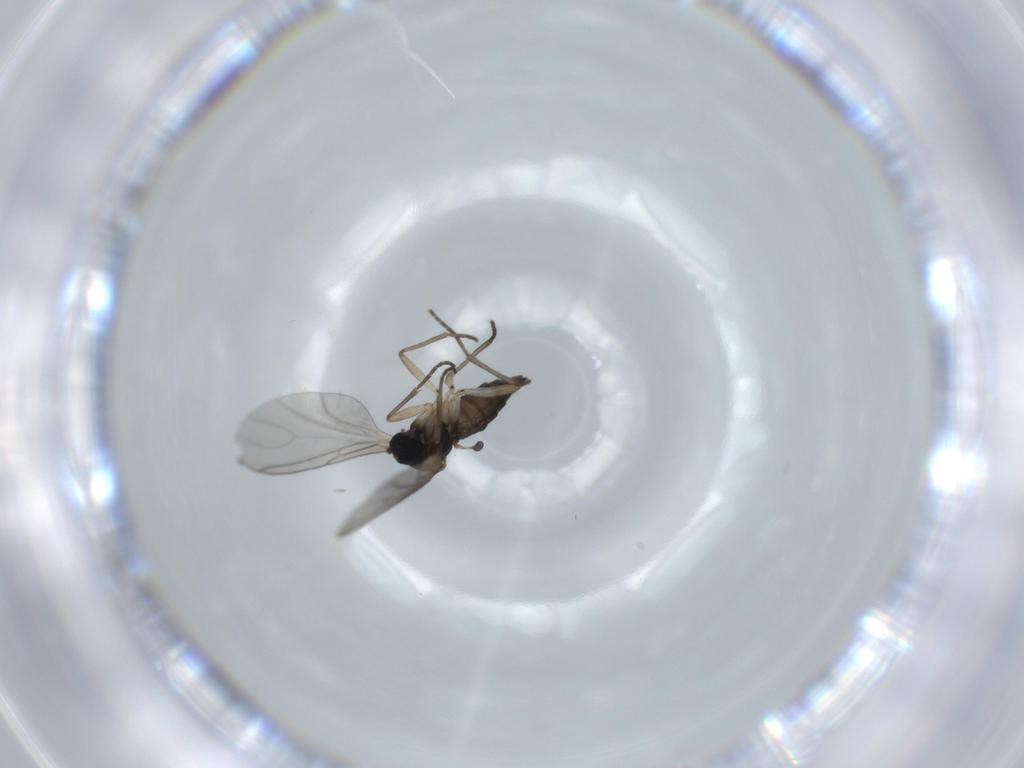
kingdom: Animalia
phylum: Arthropoda
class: Insecta
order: Diptera
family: Sciaridae
